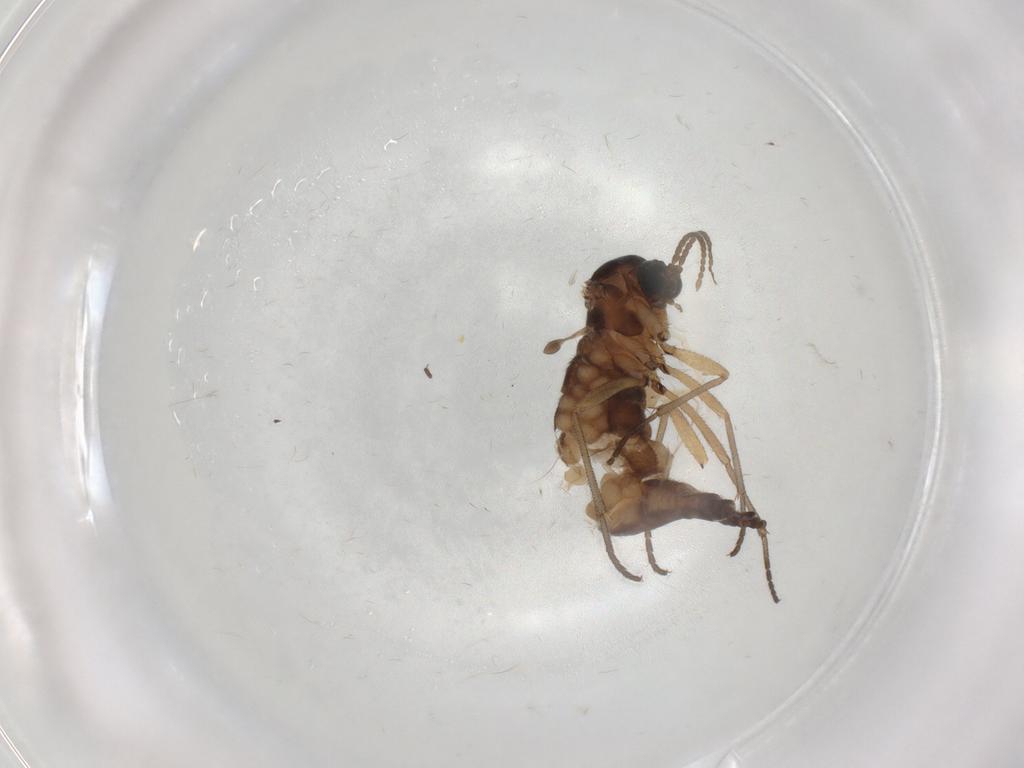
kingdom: Animalia
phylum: Arthropoda
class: Insecta
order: Diptera
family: Sciaridae
